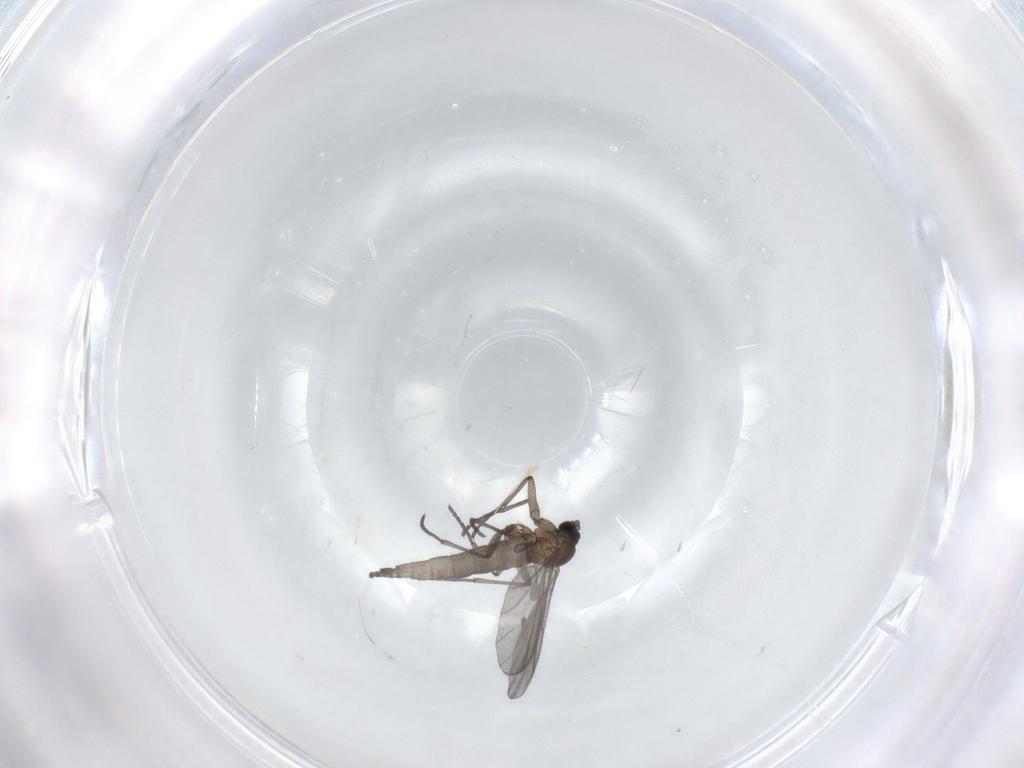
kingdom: Animalia
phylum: Arthropoda
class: Insecta
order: Diptera
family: Sciaridae
